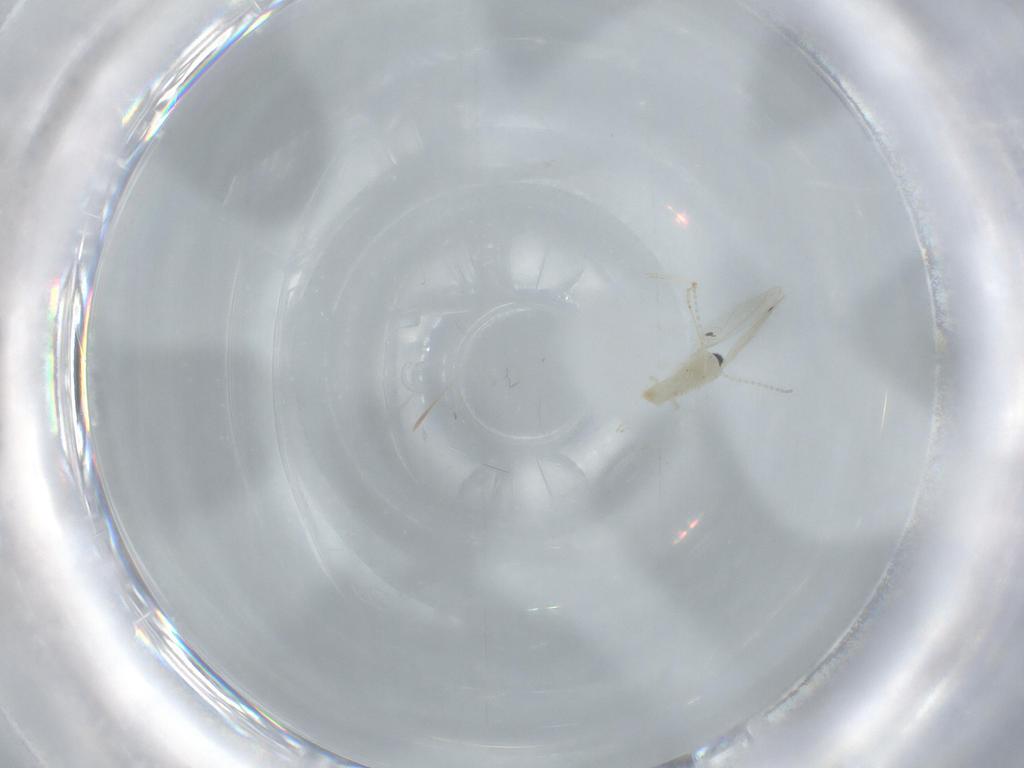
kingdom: Animalia
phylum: Arthropoda
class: Insecta
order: Diptera
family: Cecidomyiidae
